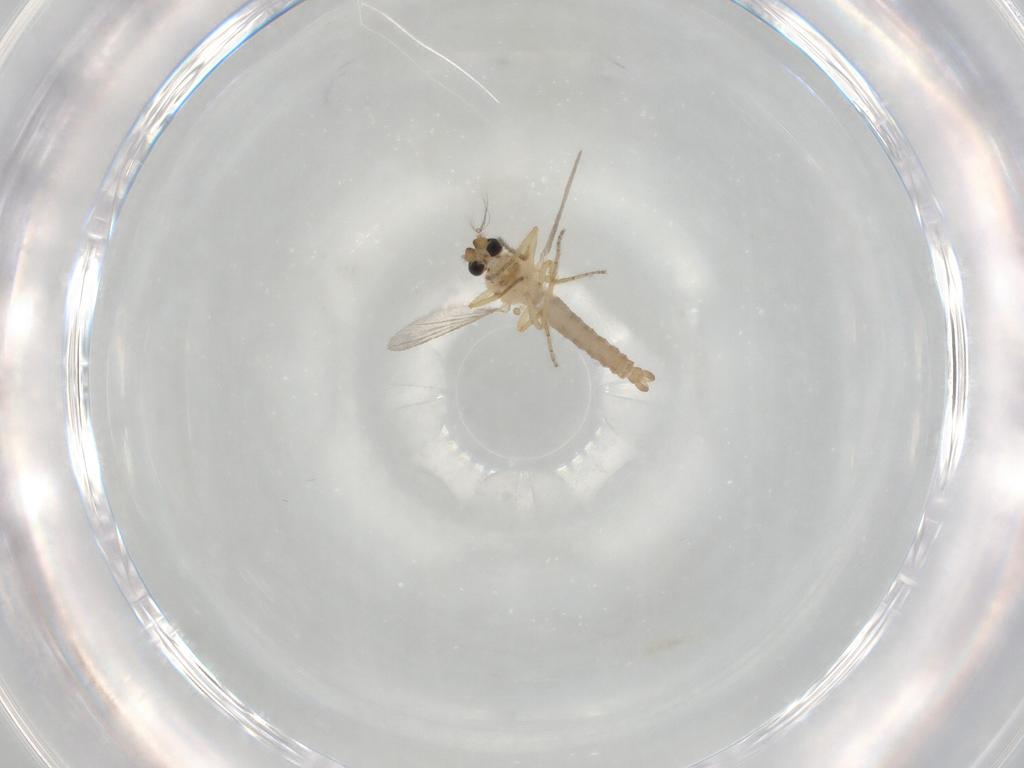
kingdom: Animalia
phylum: Arthropoda
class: Insecta
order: Diptera
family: Ceratopogonidae
